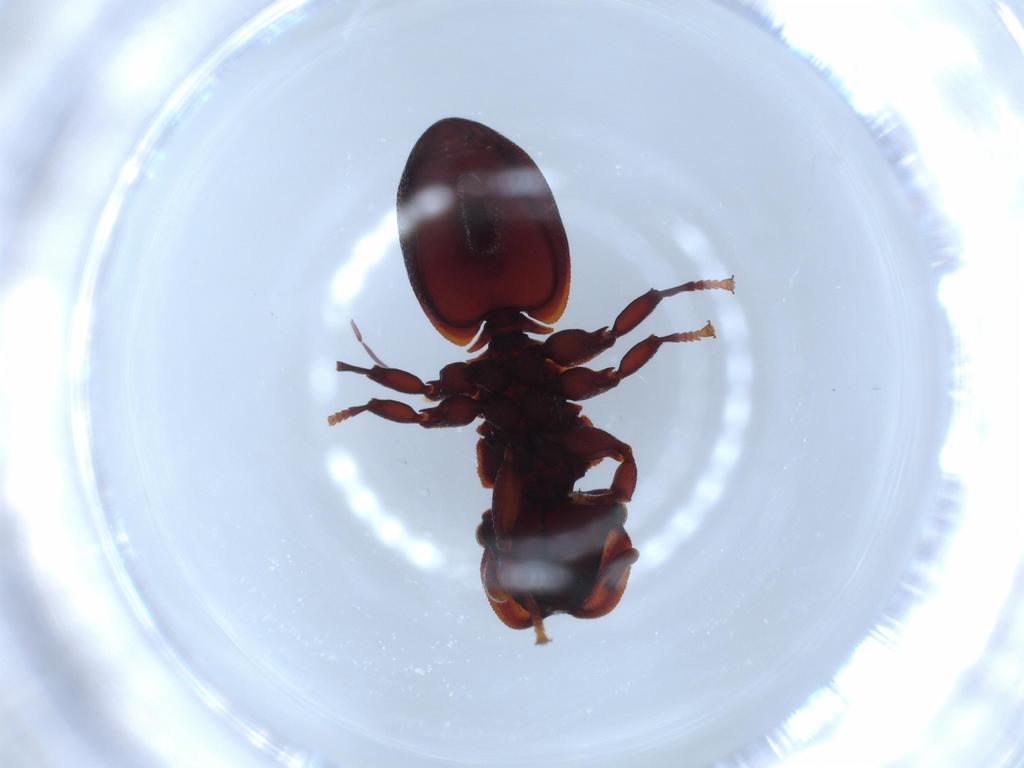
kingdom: Animalia
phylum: Arthropoda
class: Insecta
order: Hymenoptera
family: Formicidae
